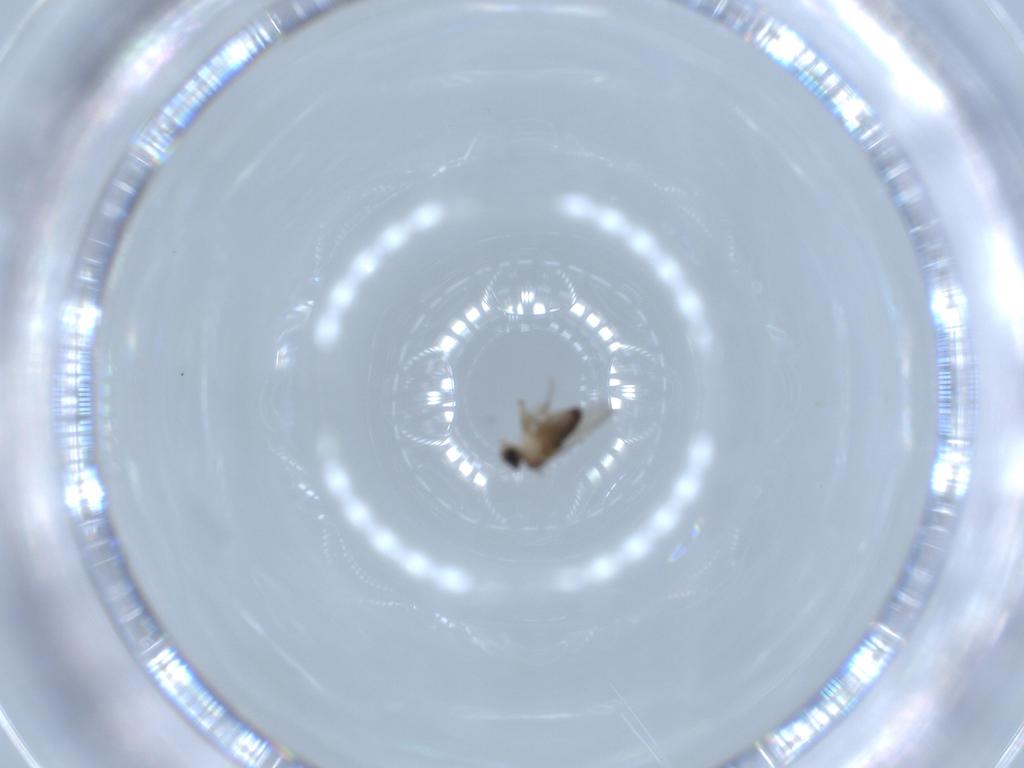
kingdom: Animalia
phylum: Arthropoda
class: Insecta
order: Diptera
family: Phoridae
